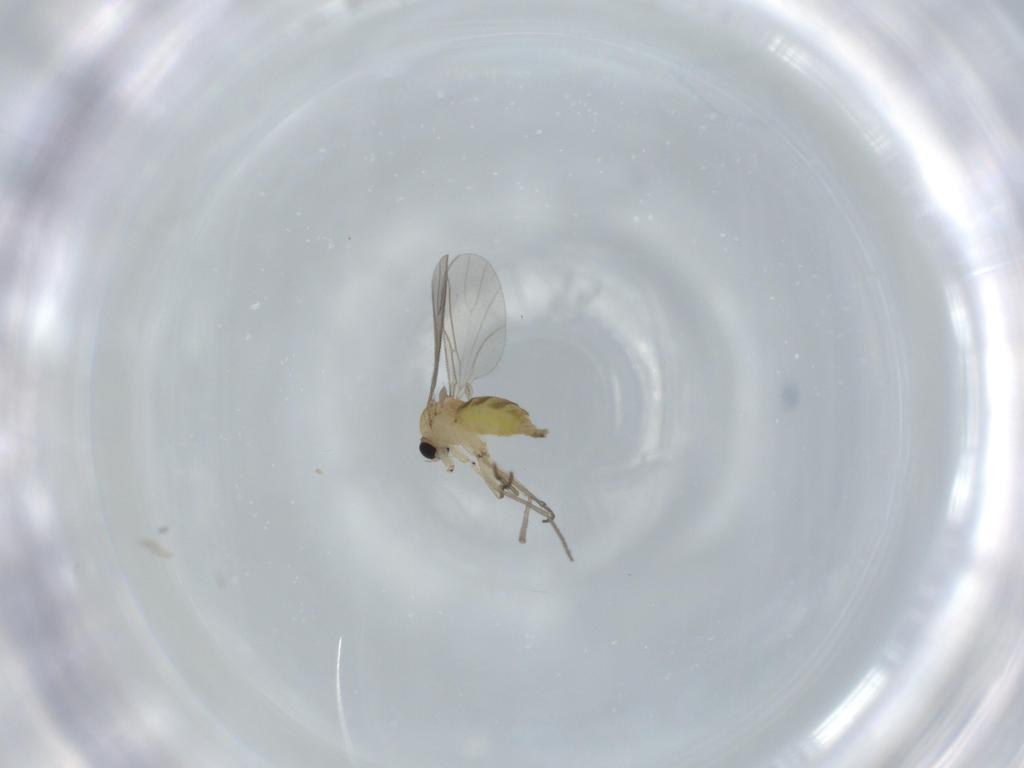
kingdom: Animalia
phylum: Arthropoda
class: Insecta
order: Diptera
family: Sciaridae
